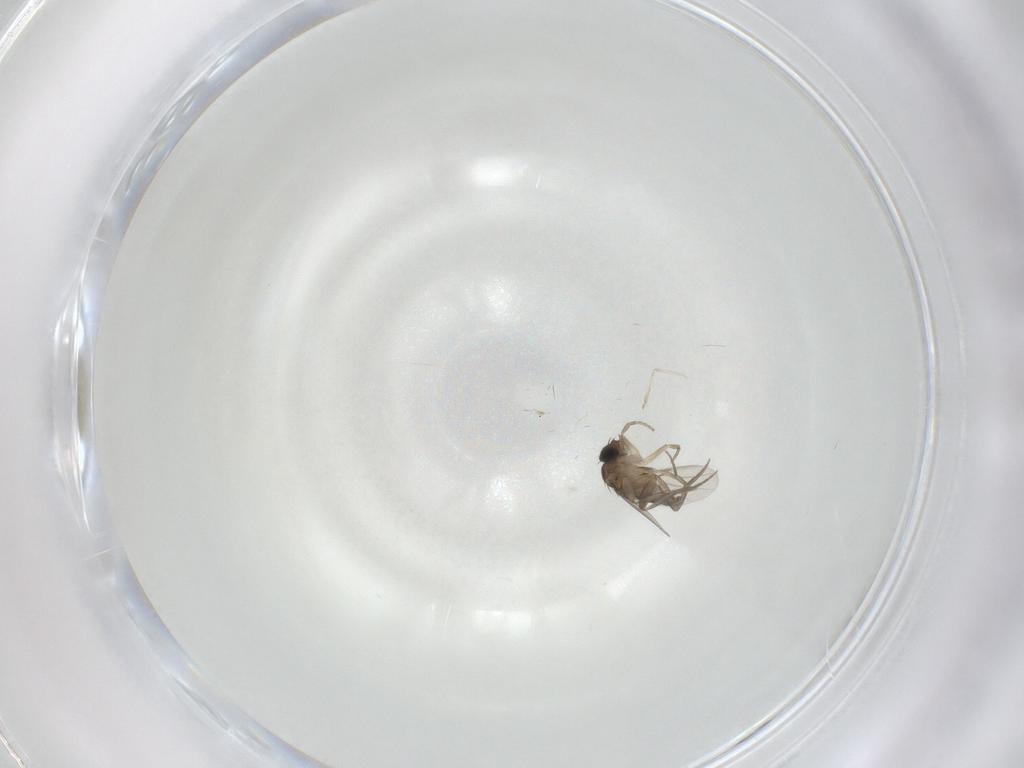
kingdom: Animalia
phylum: Arthropoda
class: Insecta
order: Diptera
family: Phoridae
